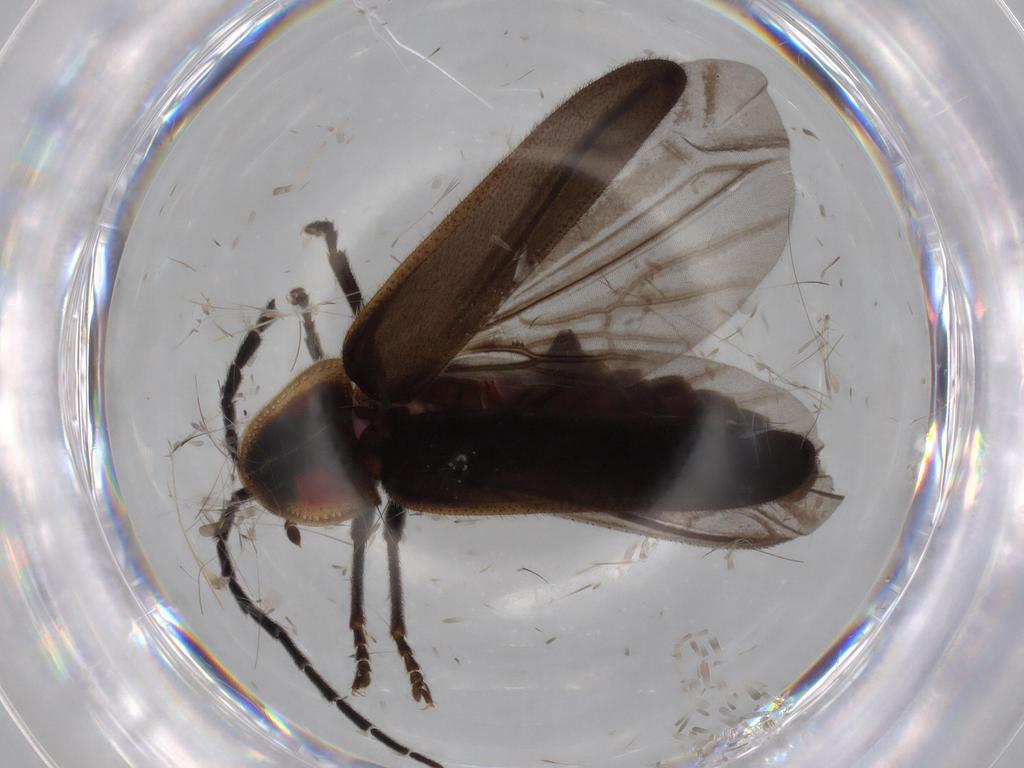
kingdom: Animalia
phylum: Arthropoda
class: Insecta
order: Coleoptera
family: Lampyridae
